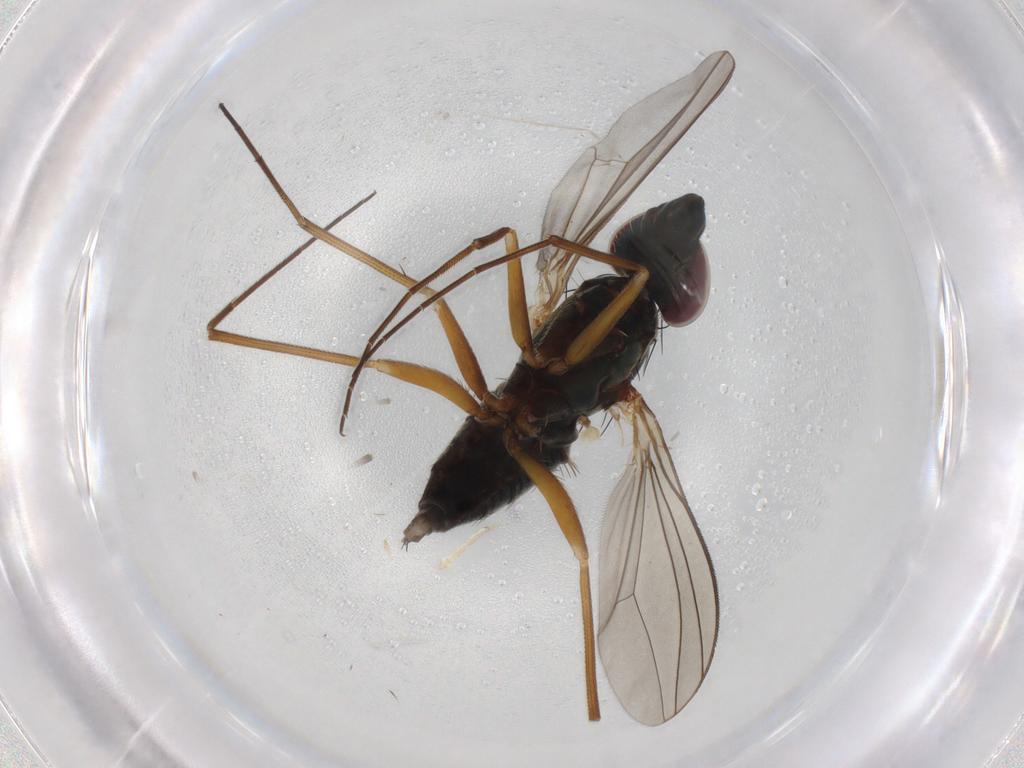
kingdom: Animalia
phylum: Arthropoda
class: Insecta
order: Diptera
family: Dolichopodidae
